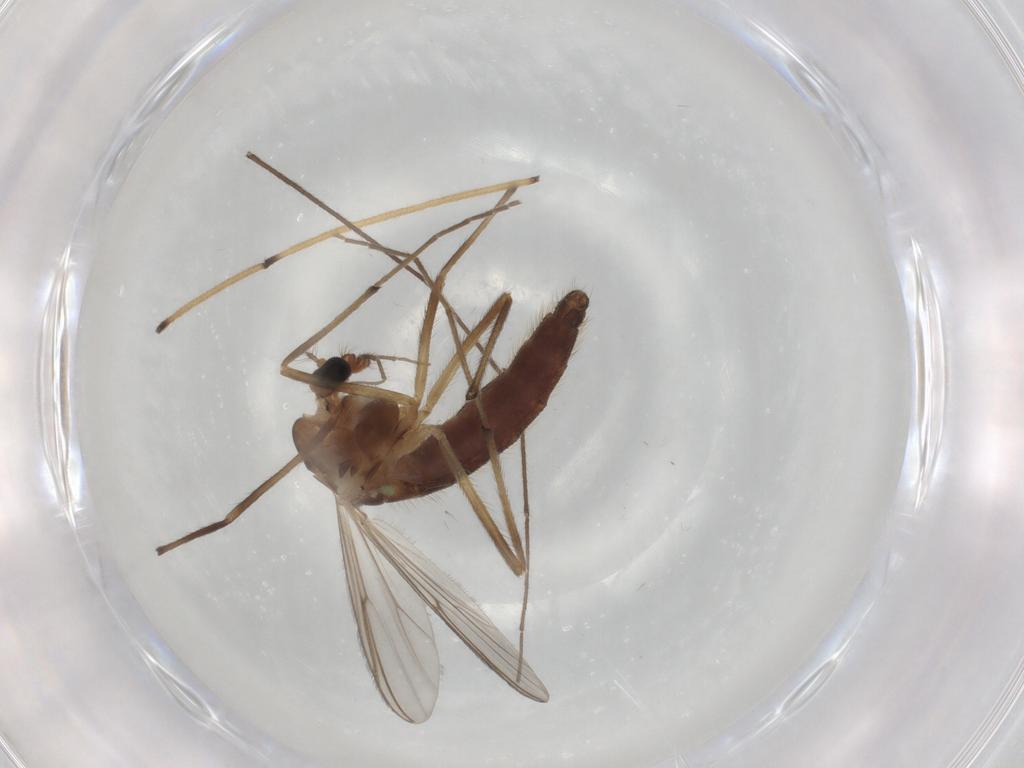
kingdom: Animalia
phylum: Arthropoda
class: Insecta
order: Diptera
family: Chironomidae
